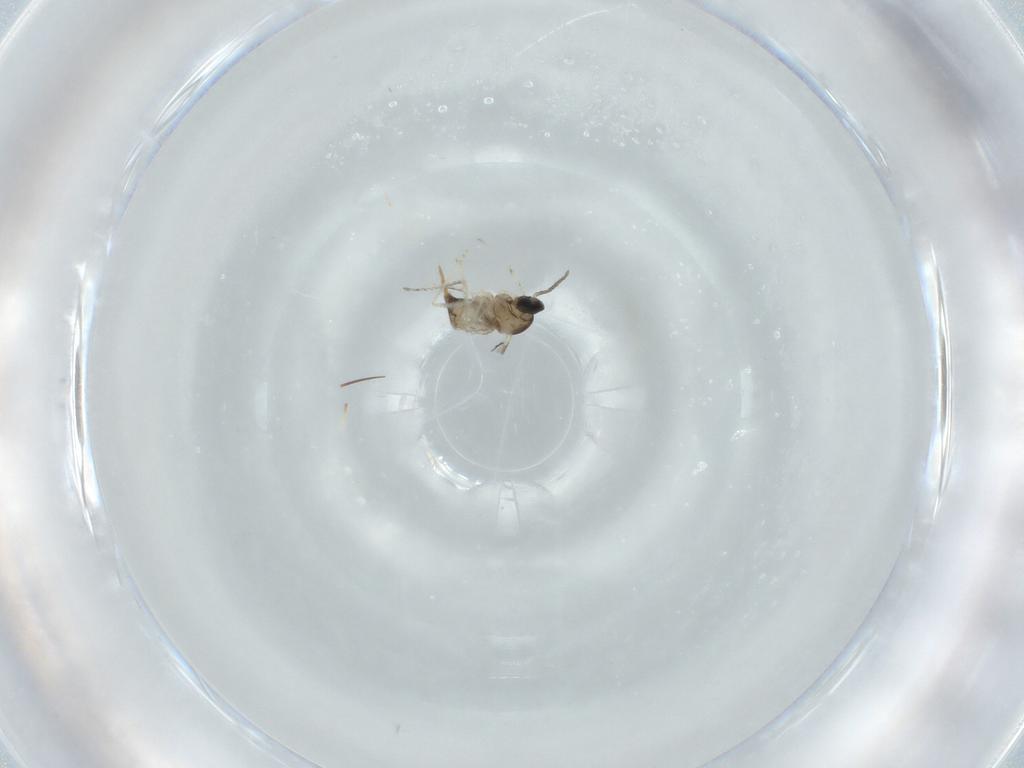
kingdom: Animalia
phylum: Arthropoda
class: Insecta
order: Diptera
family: Cecidomyiidae
